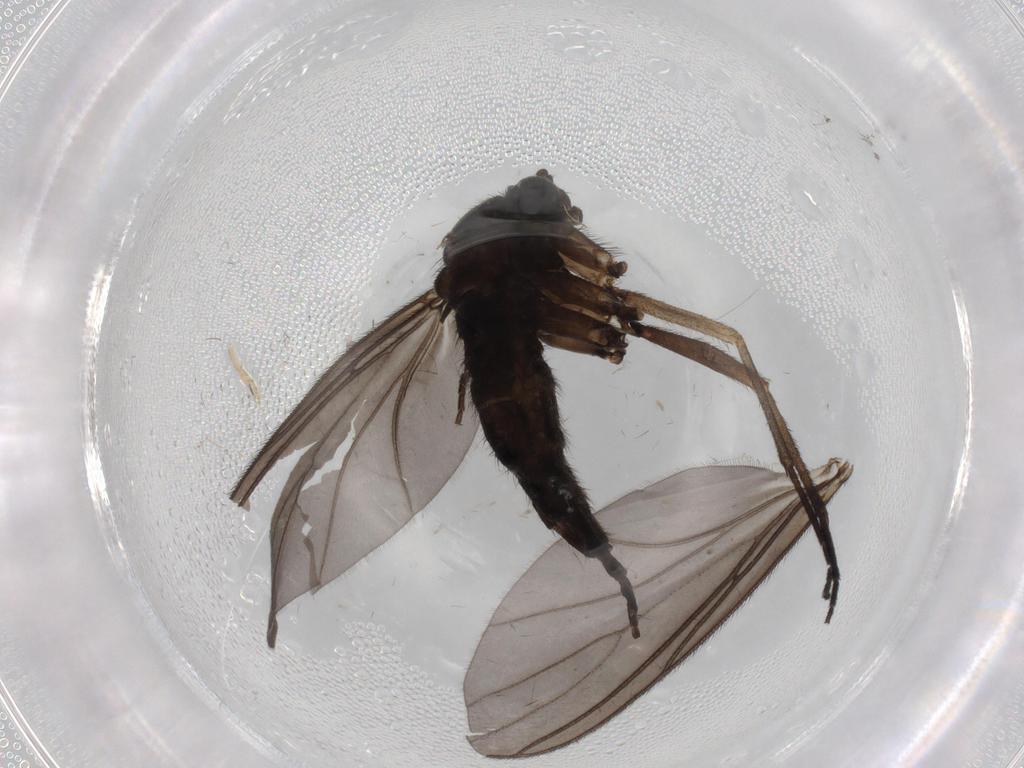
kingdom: Animalia
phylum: Arthropoda
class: Insecta
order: Diptera
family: Sciaridae
